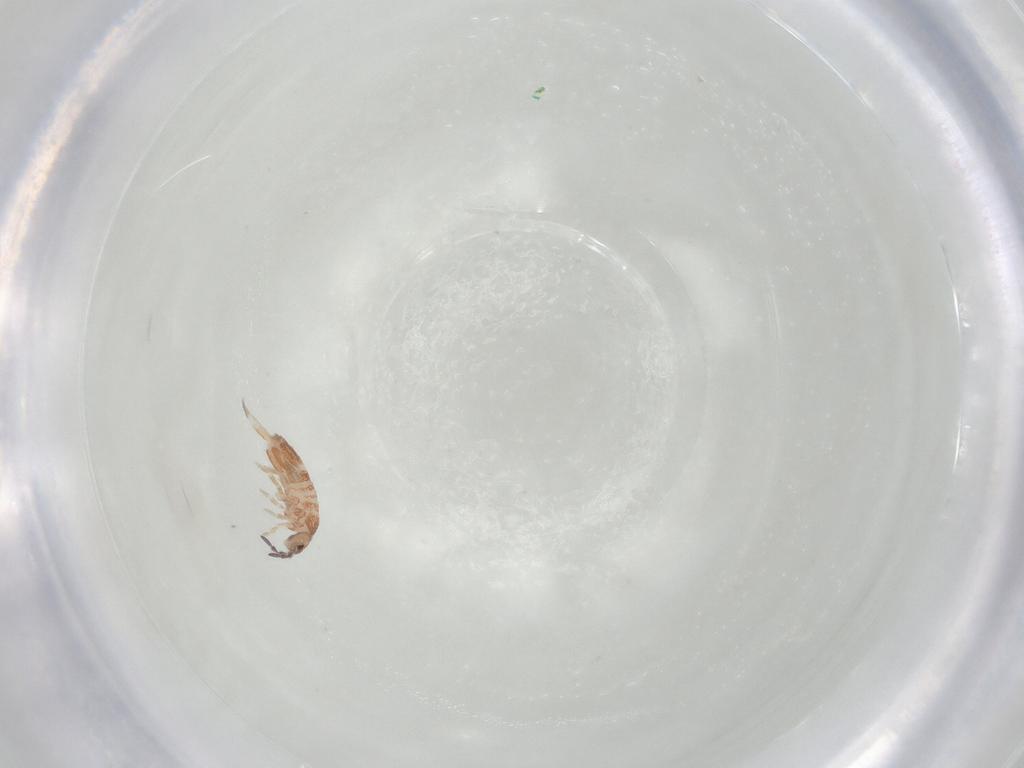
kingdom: Animalia
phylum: Arthropoda
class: Collembola
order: Entomobryomorpha
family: Entomobryidae
